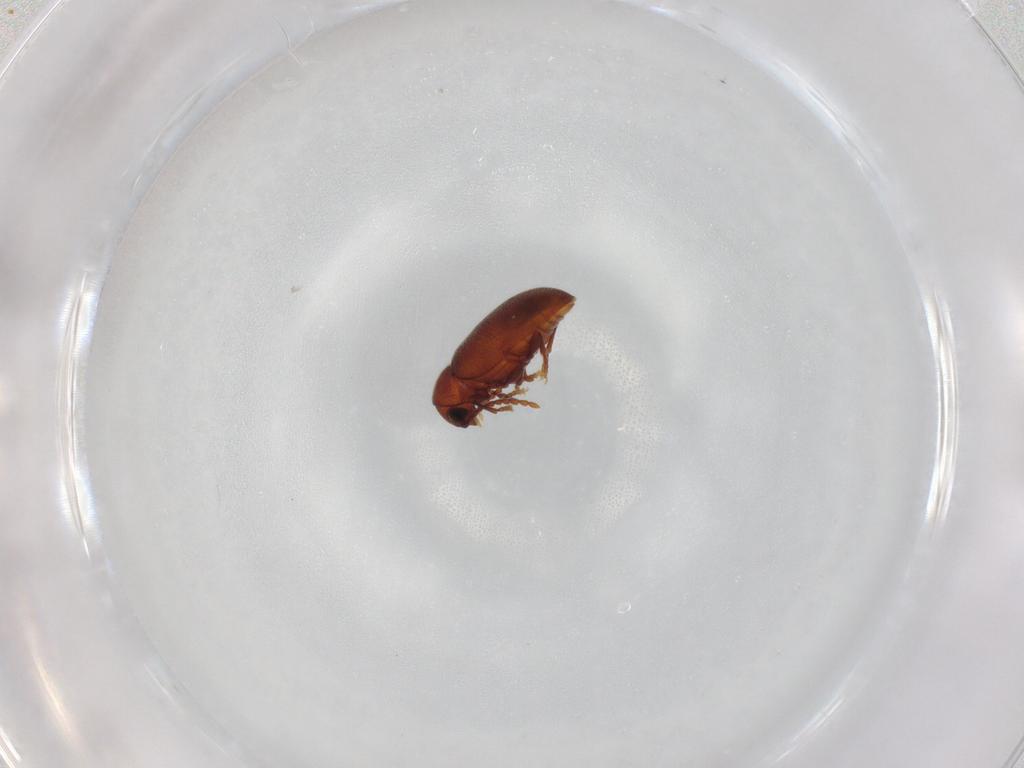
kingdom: Animalia
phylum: Arthropoda
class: Insecta
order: Coleoptera
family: Ptinidae
